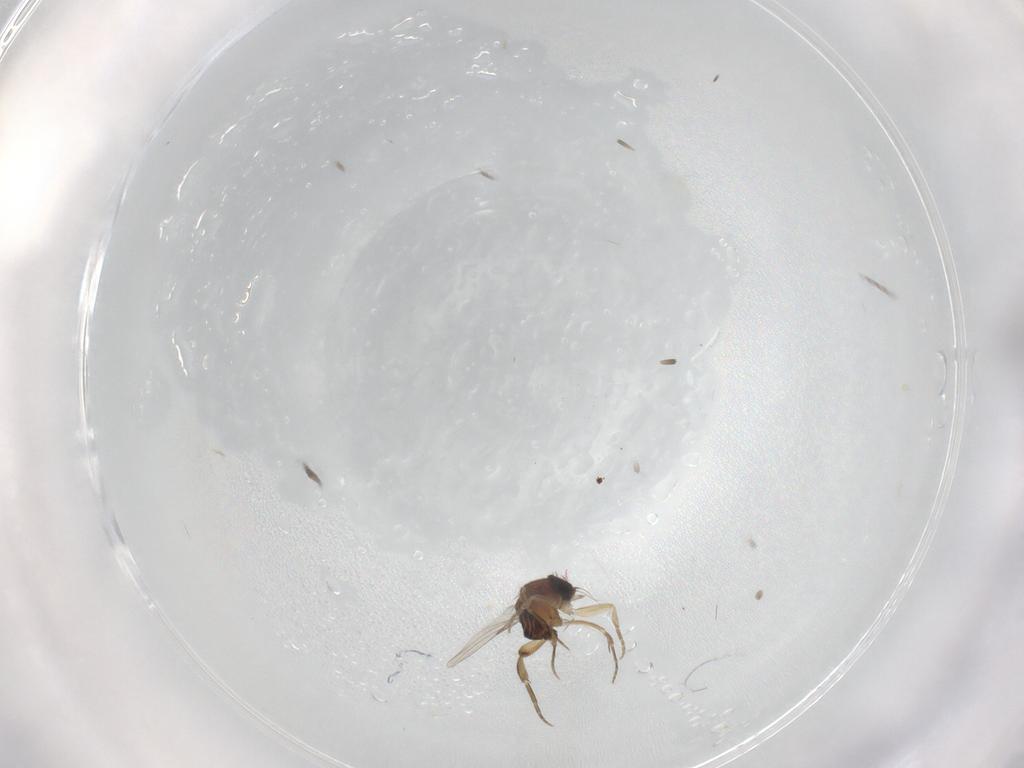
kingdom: Animalia
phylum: Arthropoda
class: Insecta
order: Diptera
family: Phoridae
